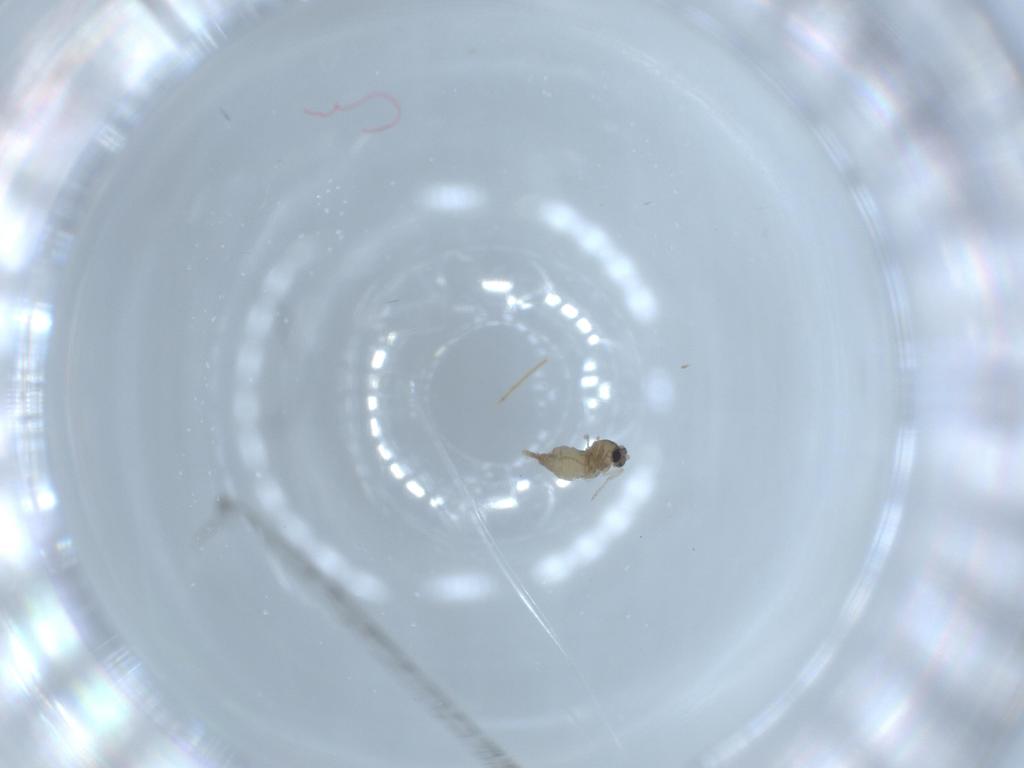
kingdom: Animalia
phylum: Arthropoda
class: Insecta
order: Diptera
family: Cecidomyiidae
